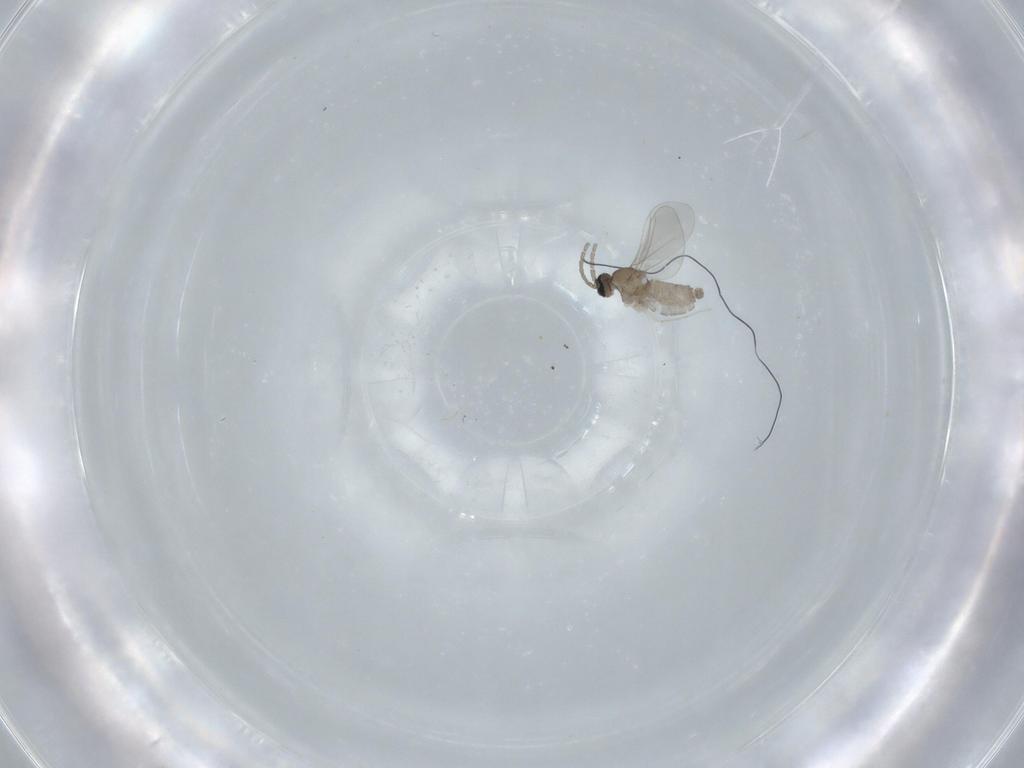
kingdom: Animalia
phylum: Arthropoda
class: Insecta
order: Diptera
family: Cecidomyiidae
